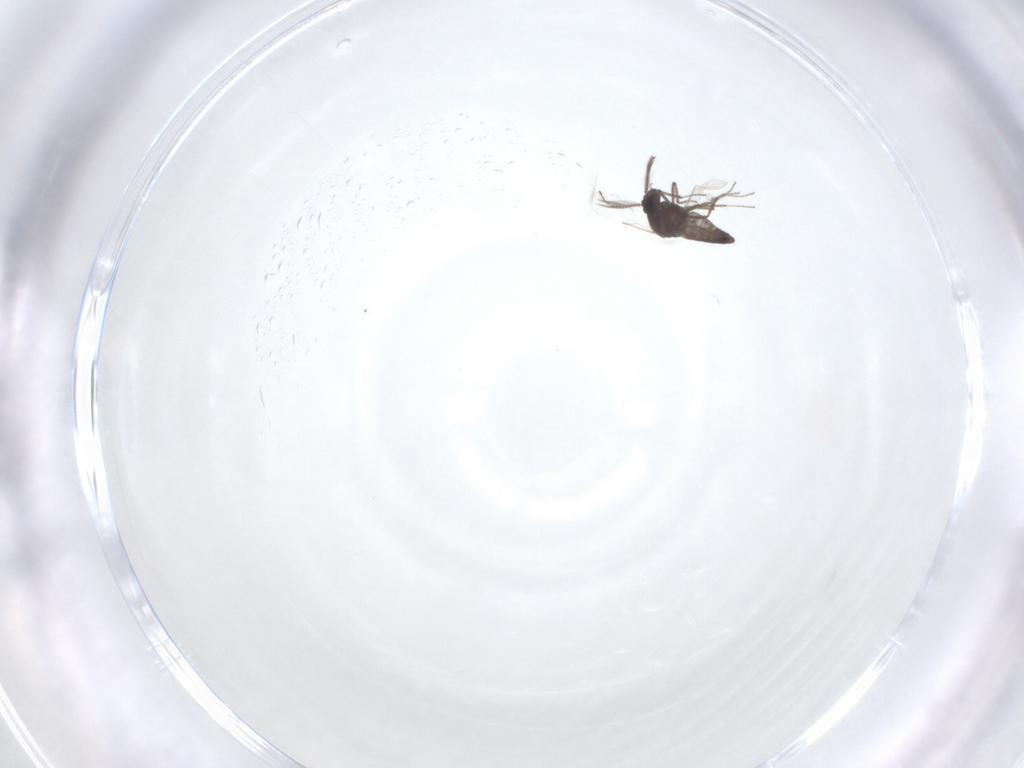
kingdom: Animalia
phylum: Arthropoda
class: Insecta
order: Diptera
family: Ceratopogonidae
